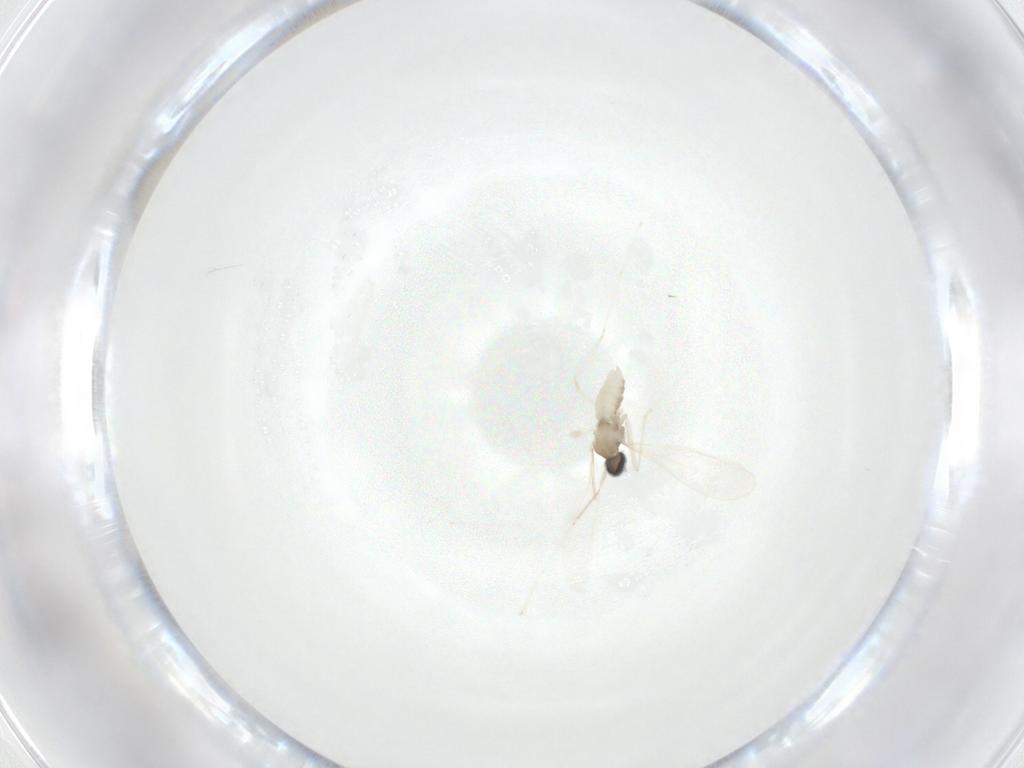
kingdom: Animalia
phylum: Arthropoda
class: Insecta
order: Diptera
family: Cecidomyiidae
